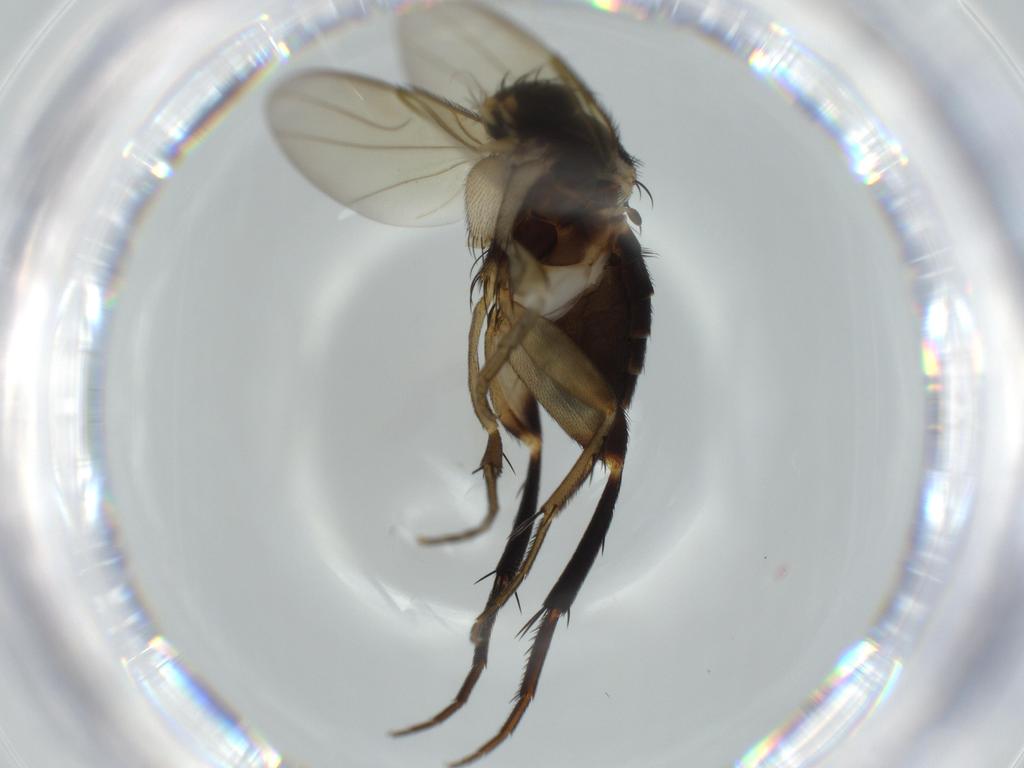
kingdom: Animalia
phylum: Arthropoda
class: Insecta
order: Diptera
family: Phoridae
